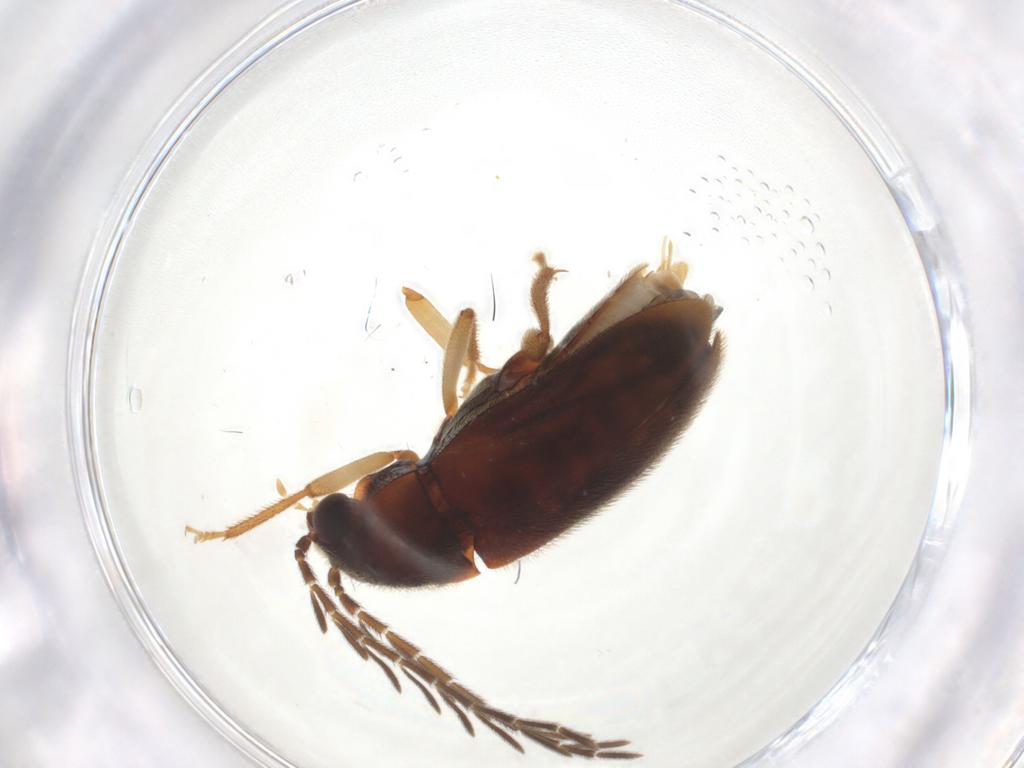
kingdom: Animalia
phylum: Arthropoda
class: Insecta
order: Coleoptera
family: Ptilodactylidae
